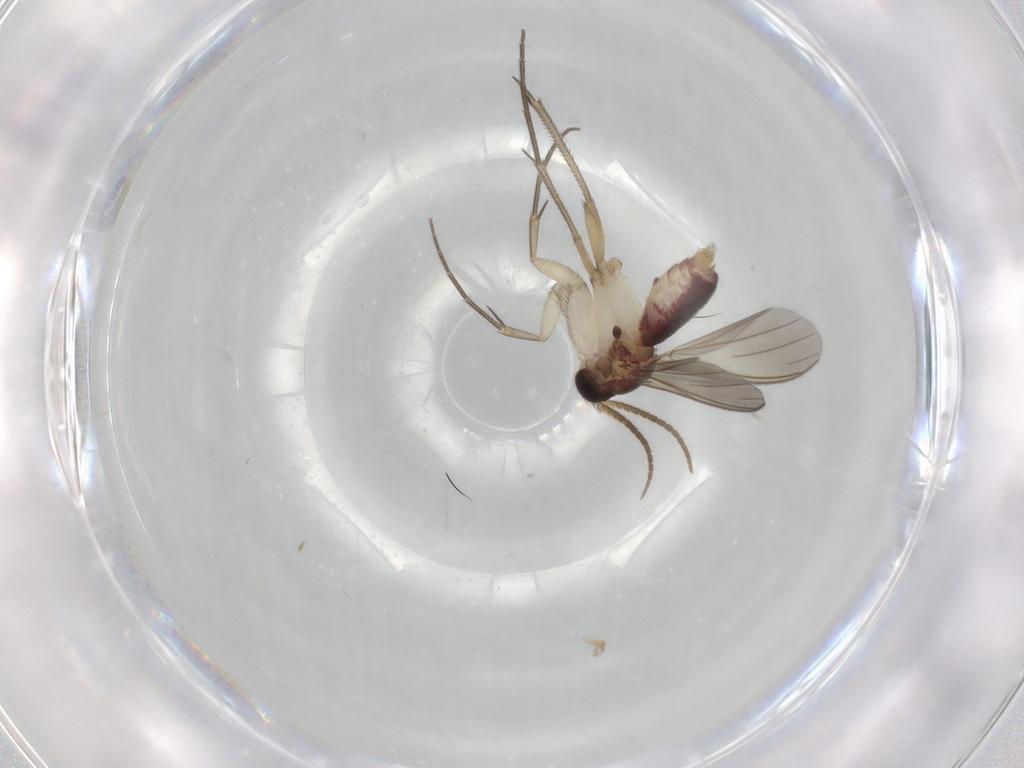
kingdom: Animalia
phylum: Arthropoda
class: Insecta
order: Diptera
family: Mycetophilidae
